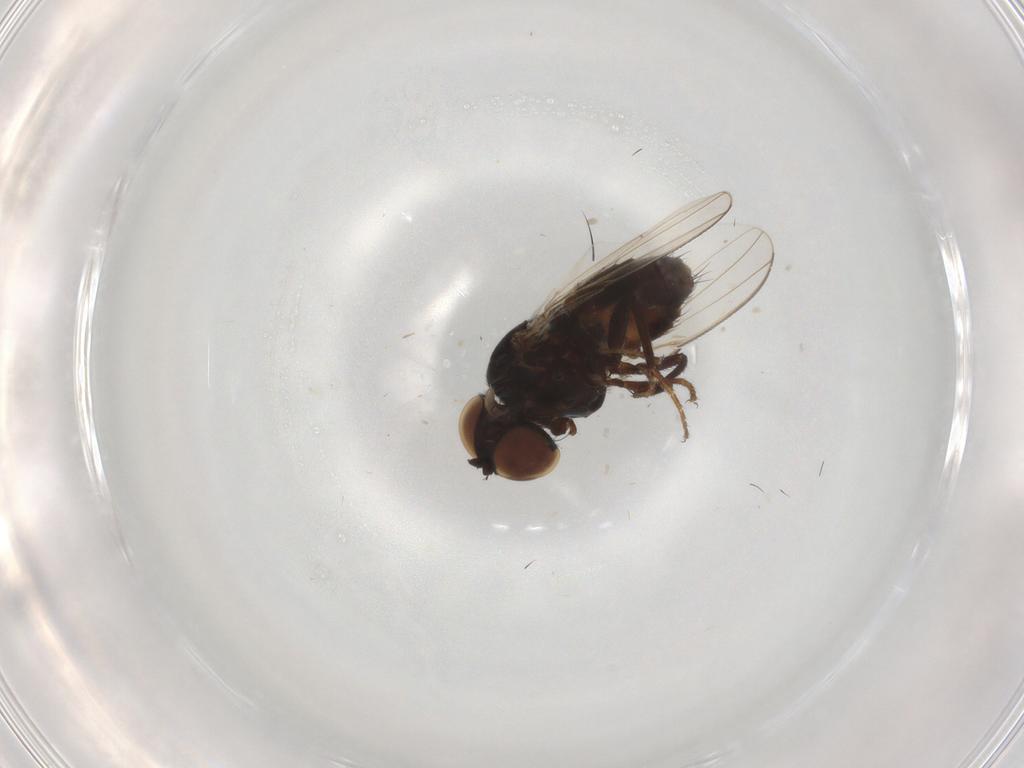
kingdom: Animalia
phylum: Arthropoda
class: Insecta
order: Diptera
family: Milichiidae
